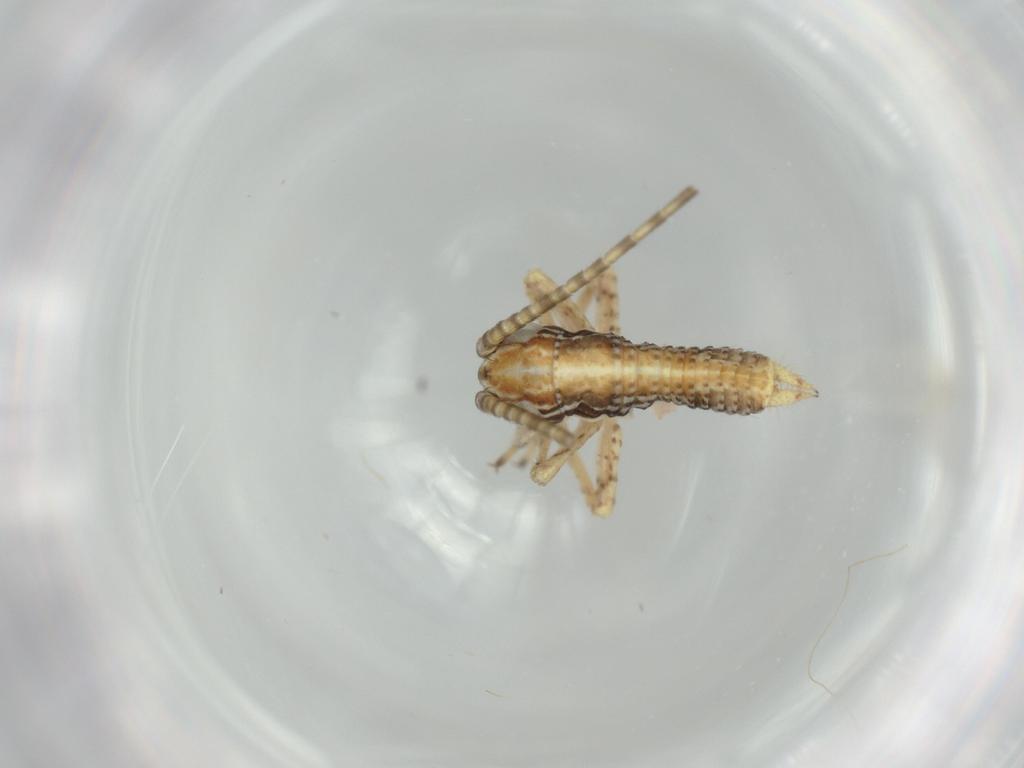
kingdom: Animalia
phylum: Arthropoda
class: Insecta
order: Orthoptera
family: Gryllidae
